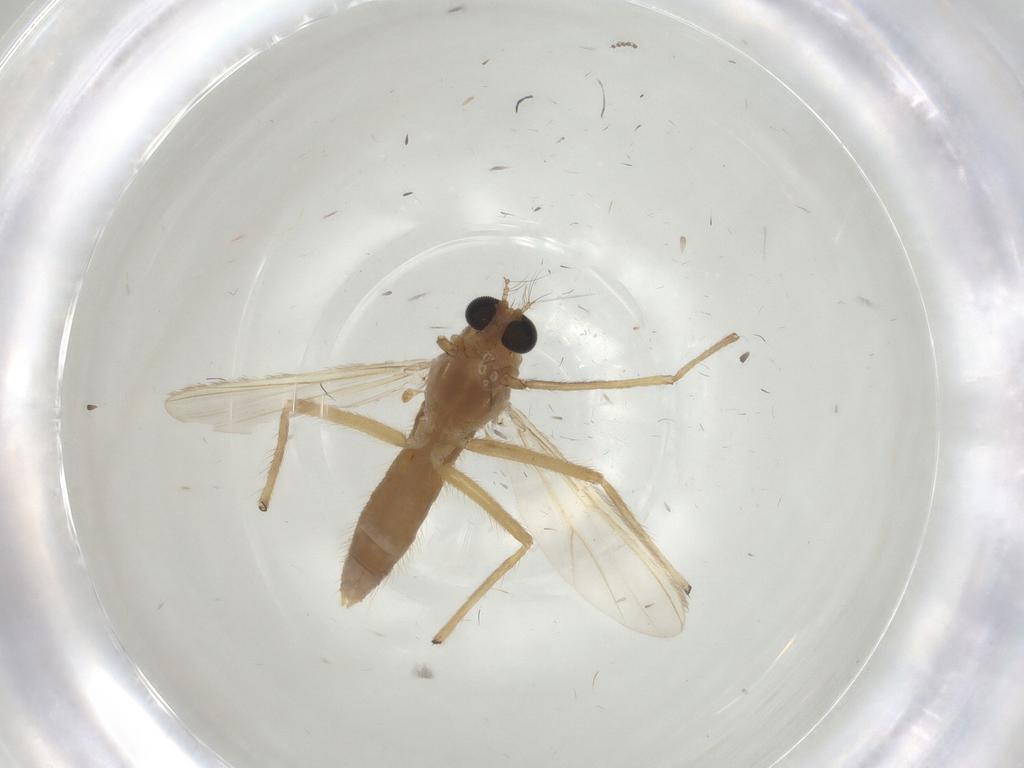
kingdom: Animalia
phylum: Arthropoda
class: Insecta
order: Diptera
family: Chironomidae
